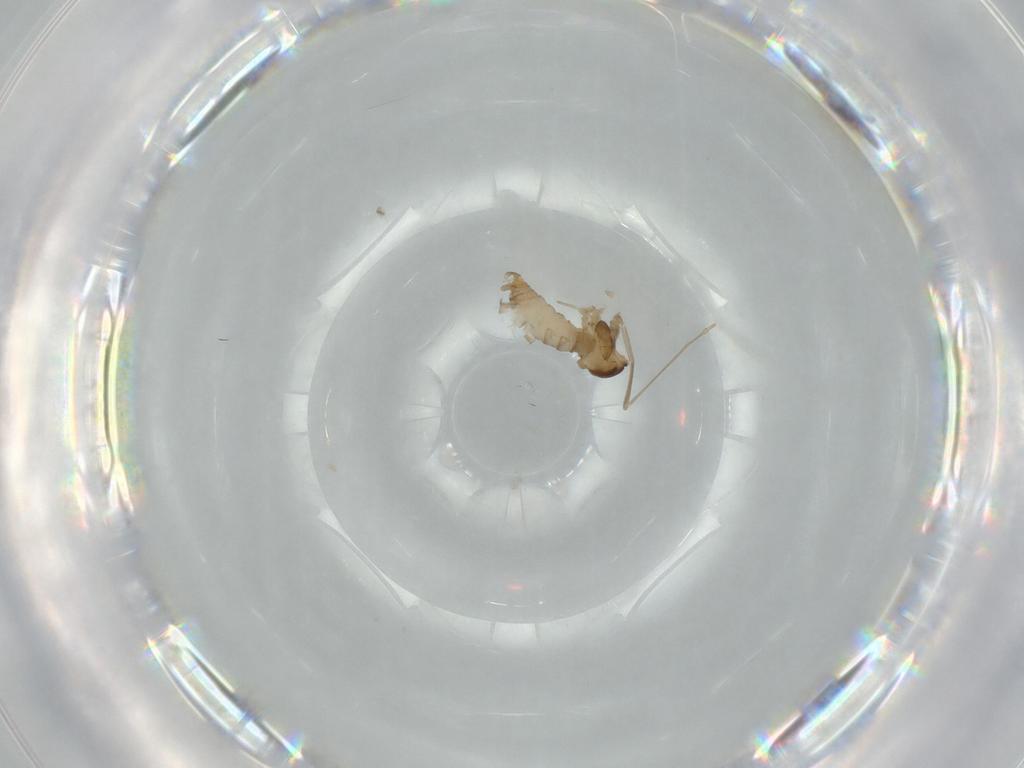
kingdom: Animalia
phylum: Arthropoda
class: Insecta
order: Diptera
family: Cecidomyiidae
